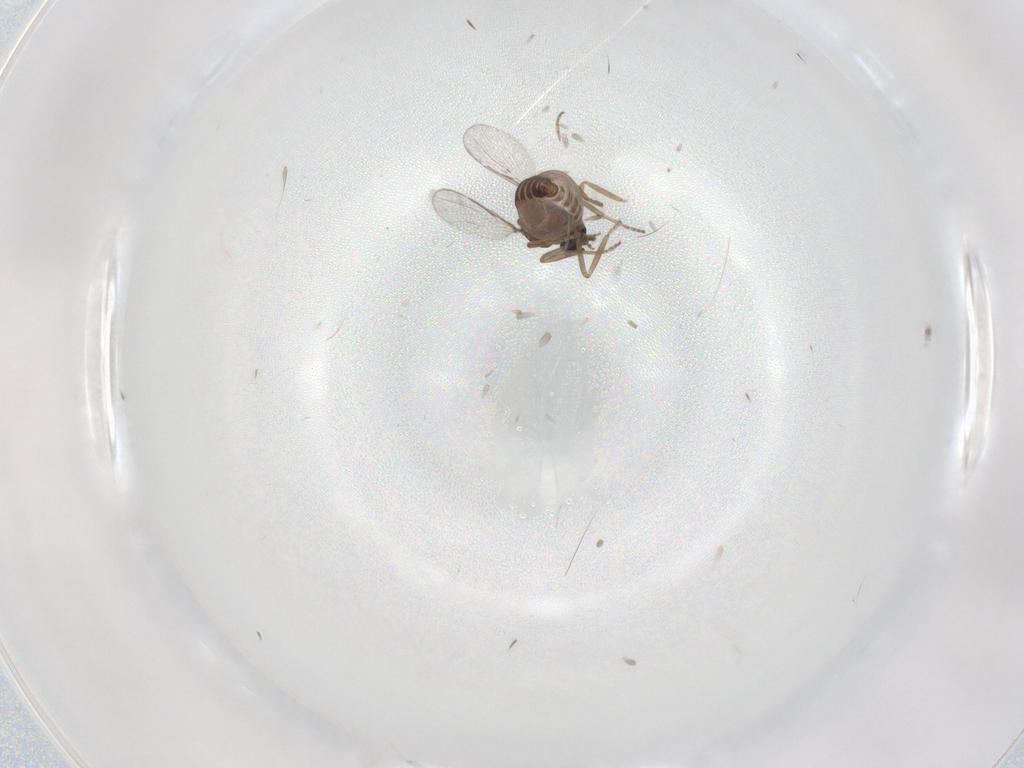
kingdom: Animalia
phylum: Arthropoda
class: Insecta
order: Diptera
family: Ceratopogonidae
